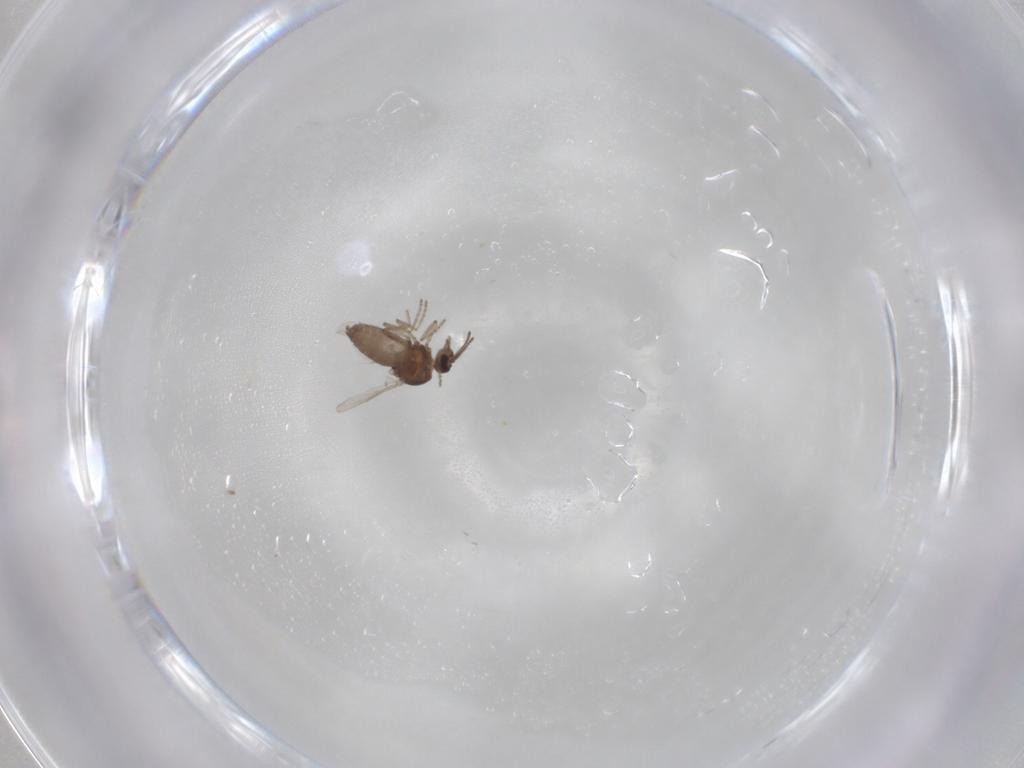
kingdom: Animalia
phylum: Arthropoda
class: Insecta
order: Diptera
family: Ceratopogonidae
